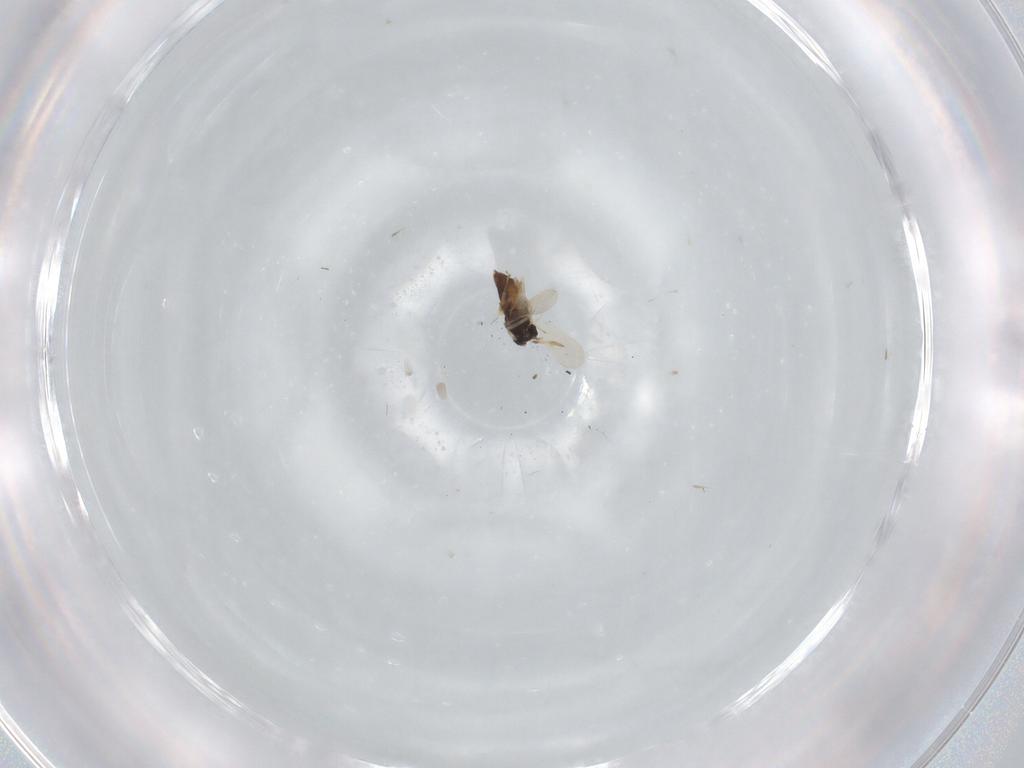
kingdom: Animalia
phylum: Arthropoda
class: Insecta
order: Hymenoptera
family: Aphelinidae
